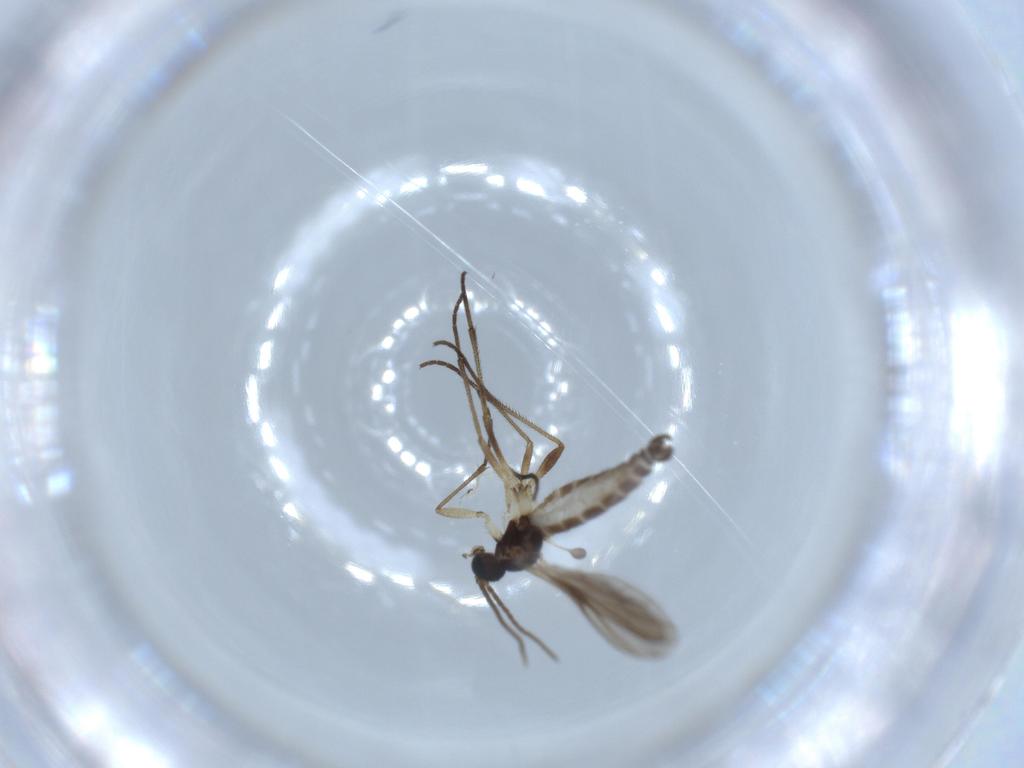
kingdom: Animalia
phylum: Arthropoda
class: Insecta
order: Diptera
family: Sciaridae
